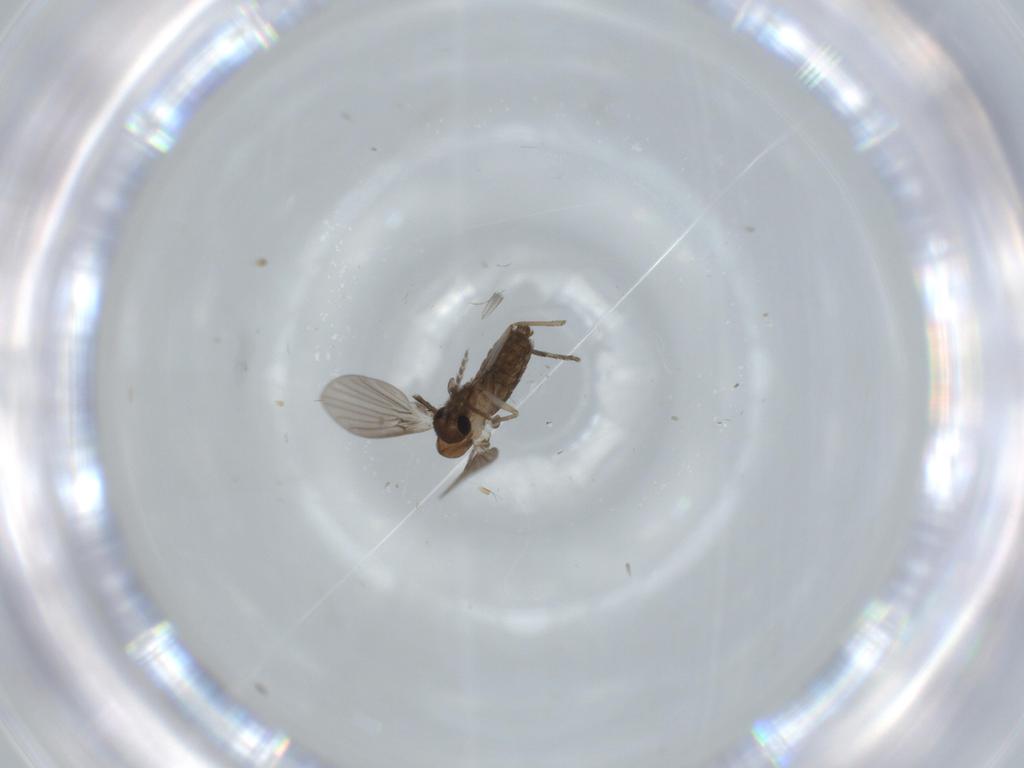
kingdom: Animalia
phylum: Arthropoda
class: Insecta
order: Diptera
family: Psychodidae
